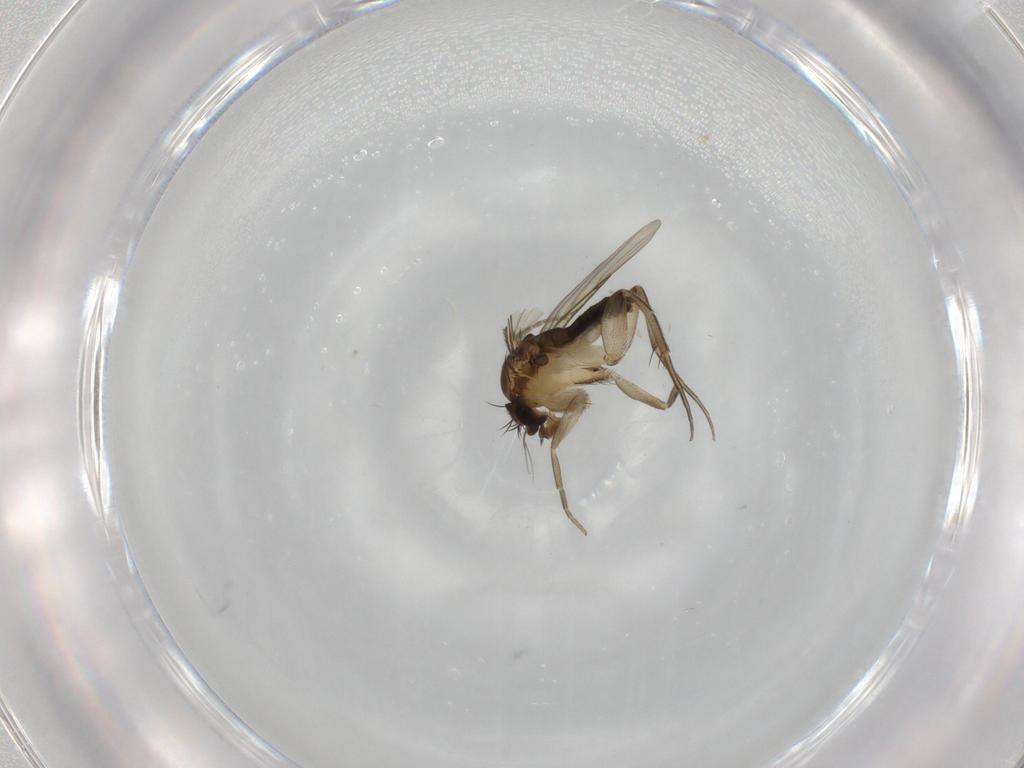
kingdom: Animalia
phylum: Arthropoda
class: Insecta
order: Diptera
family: Phoridae
